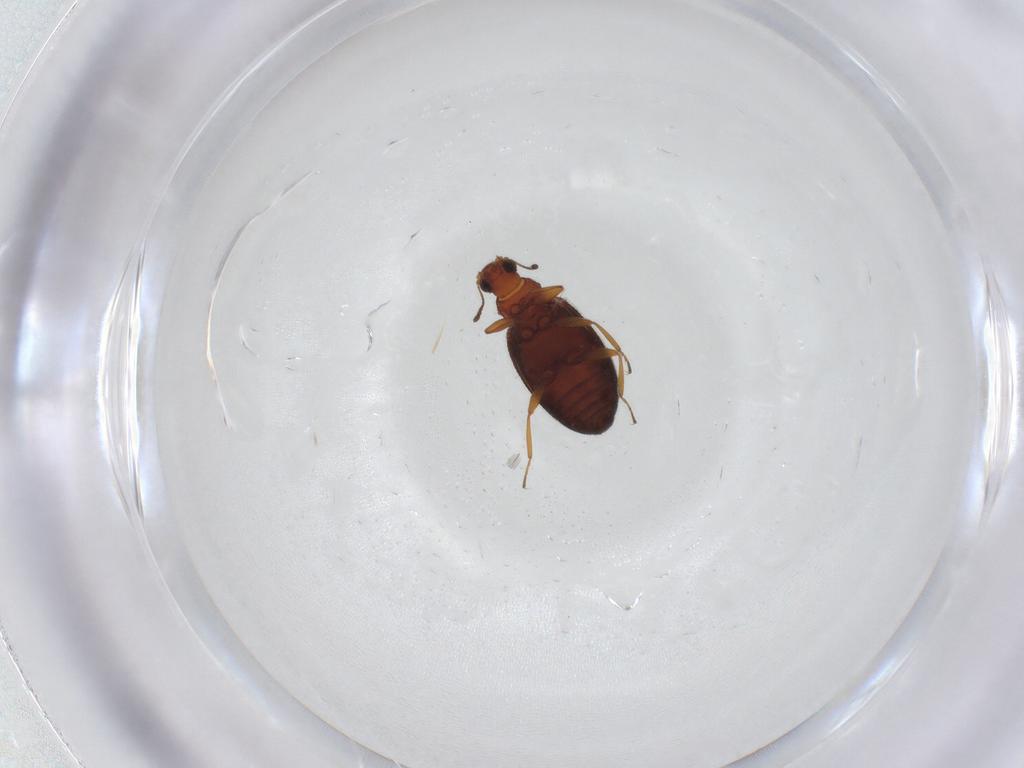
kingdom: Animalia
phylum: Arthropoda
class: Insecta
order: Coleoptera
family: Latridiidae
